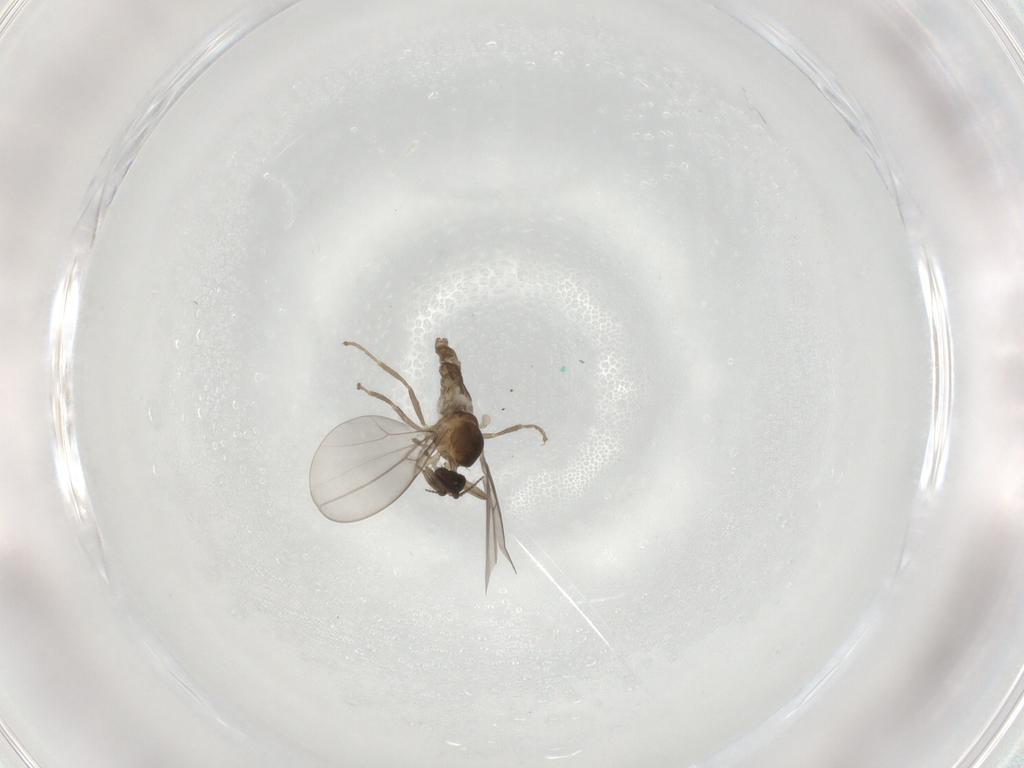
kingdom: Animalia
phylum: Arthropoda
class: Insecta
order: Diptera
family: Cecidomyiidae
